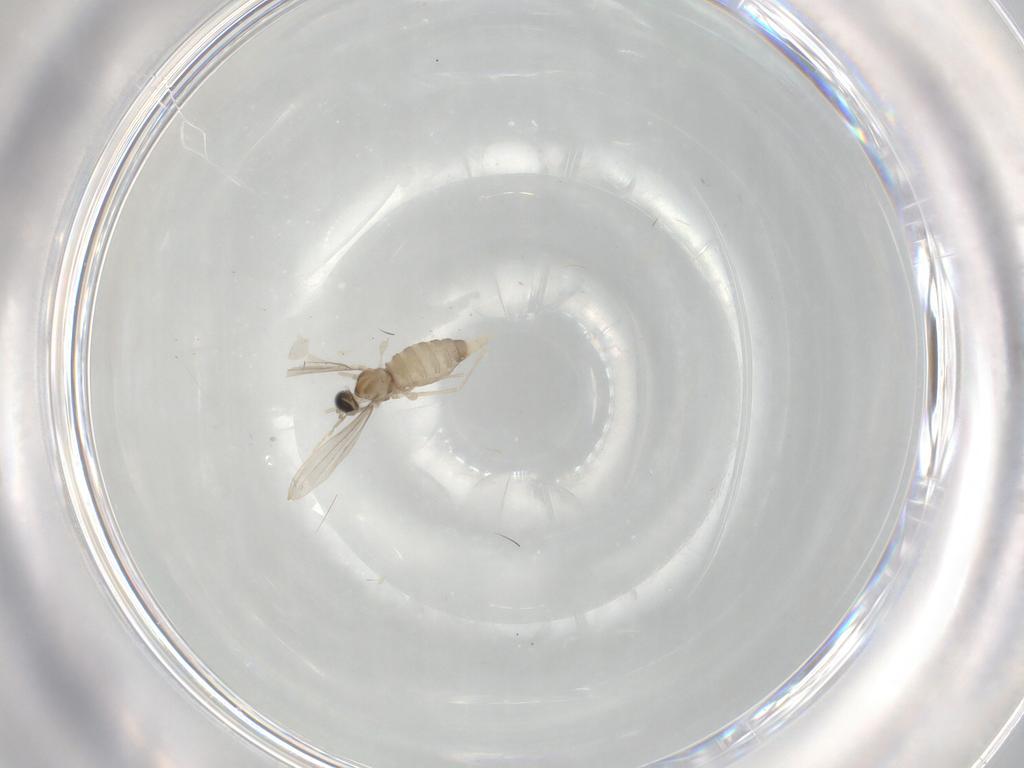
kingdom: Animalia
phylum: Arthropoda
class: Insecta
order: Diptera
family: Cecidomyiidae
